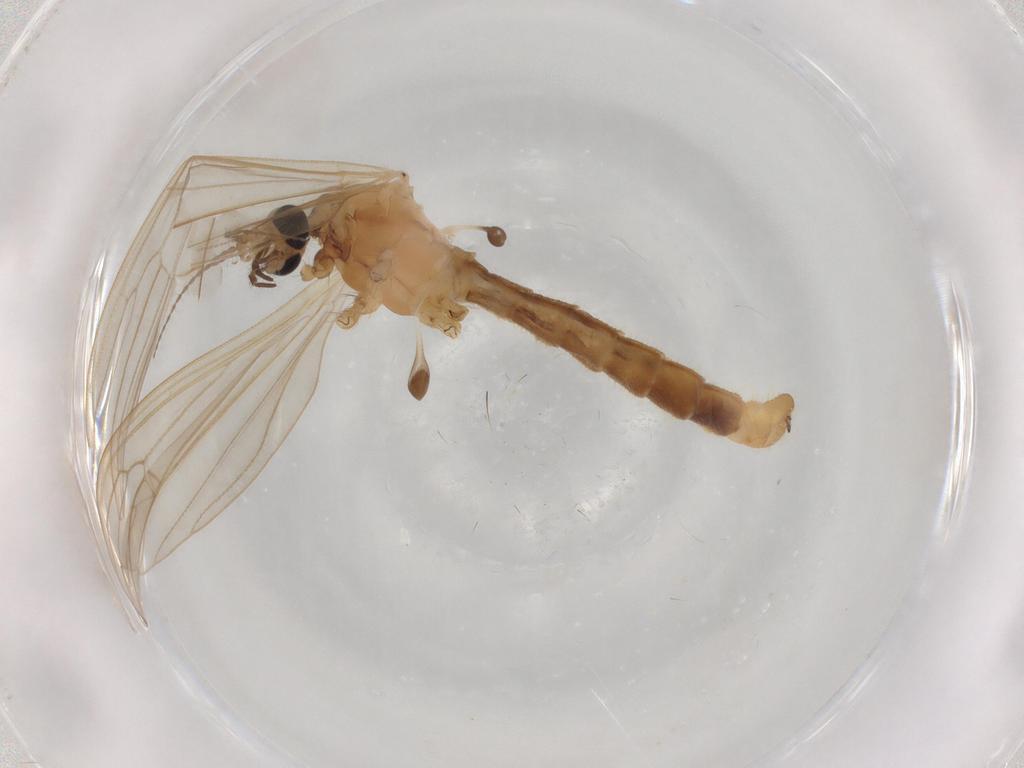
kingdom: Animalia
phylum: Arthropoda
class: Insecta
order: Diptera
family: Limoniidae
